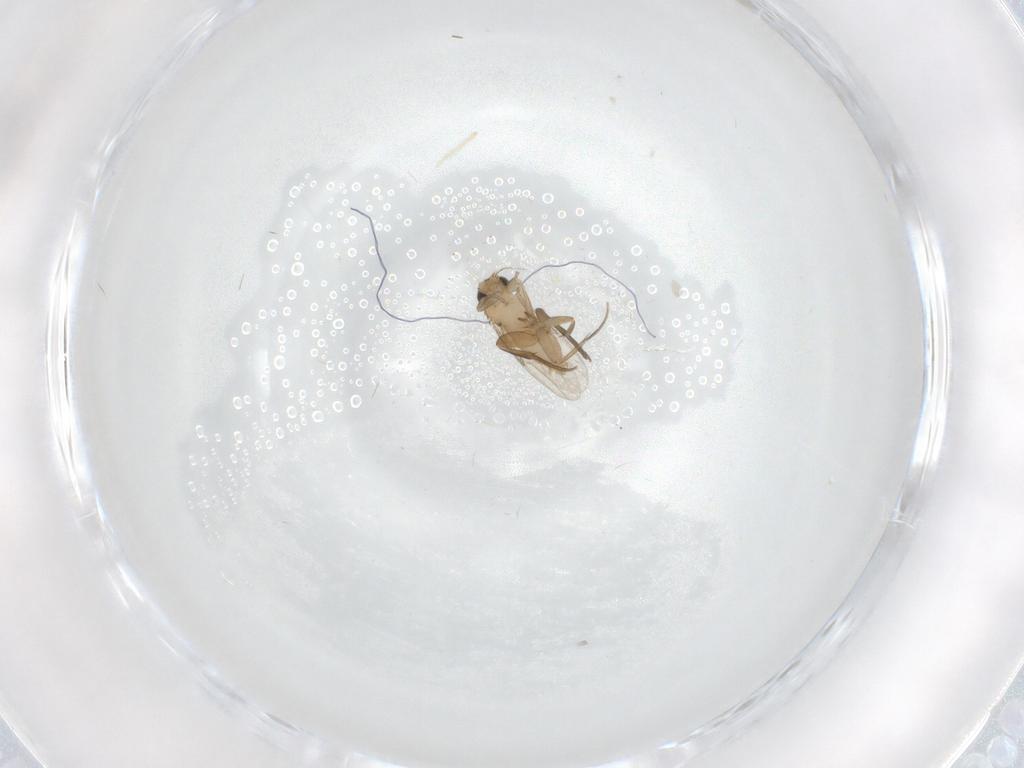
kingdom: Animalia
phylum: Arthropoda
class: Insecta
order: Diptera
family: Phoridae
